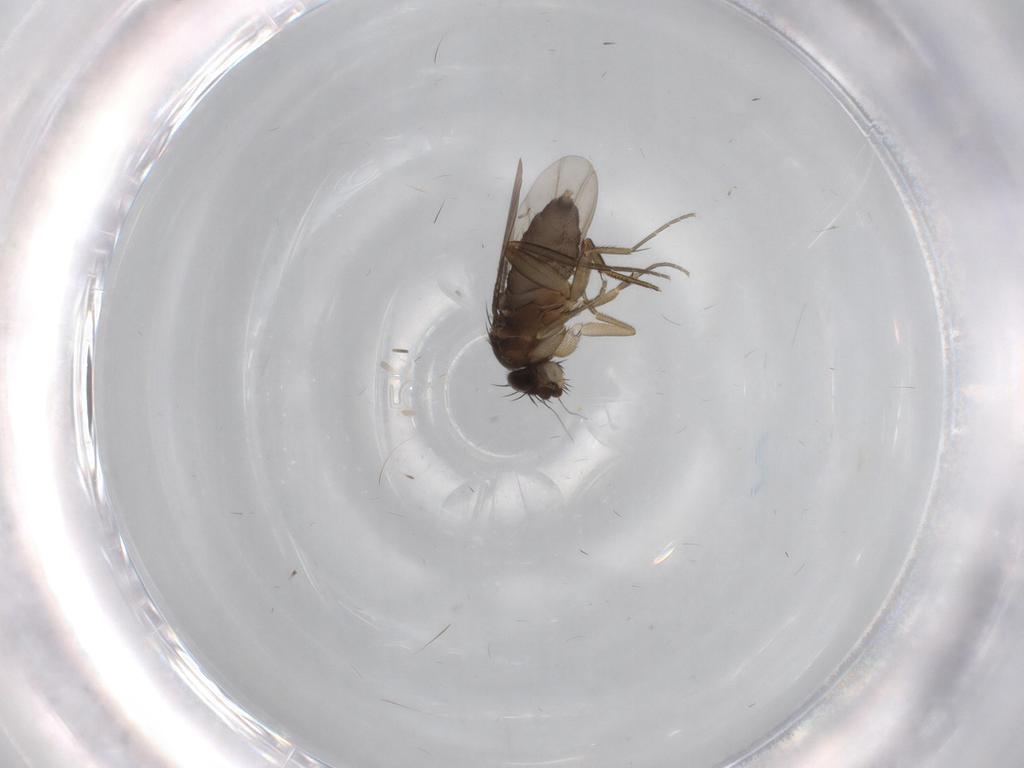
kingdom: Animalia
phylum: Arthropoda
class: Insecta
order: Diptera
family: Phoridae
